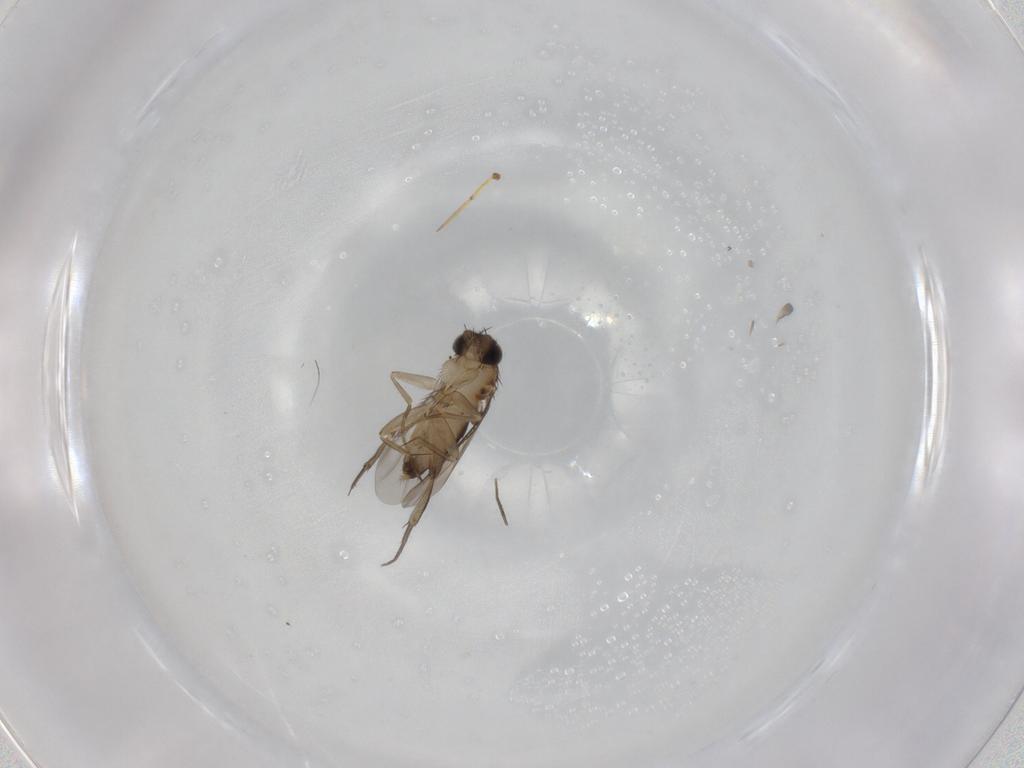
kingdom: Animalia
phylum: Arthropoda
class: Insecta
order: Diptera
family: Phoridae
